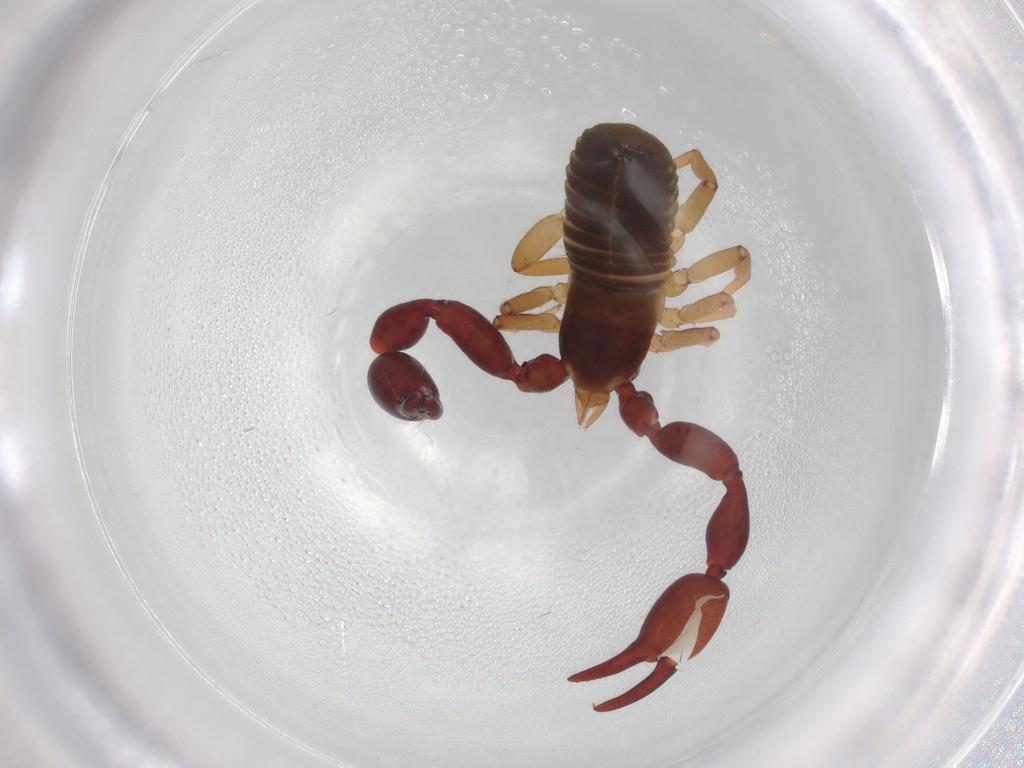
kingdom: Animalia
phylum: Arthropoda
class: Arachnida
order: Pseudoscorpiones
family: Chernetidae
